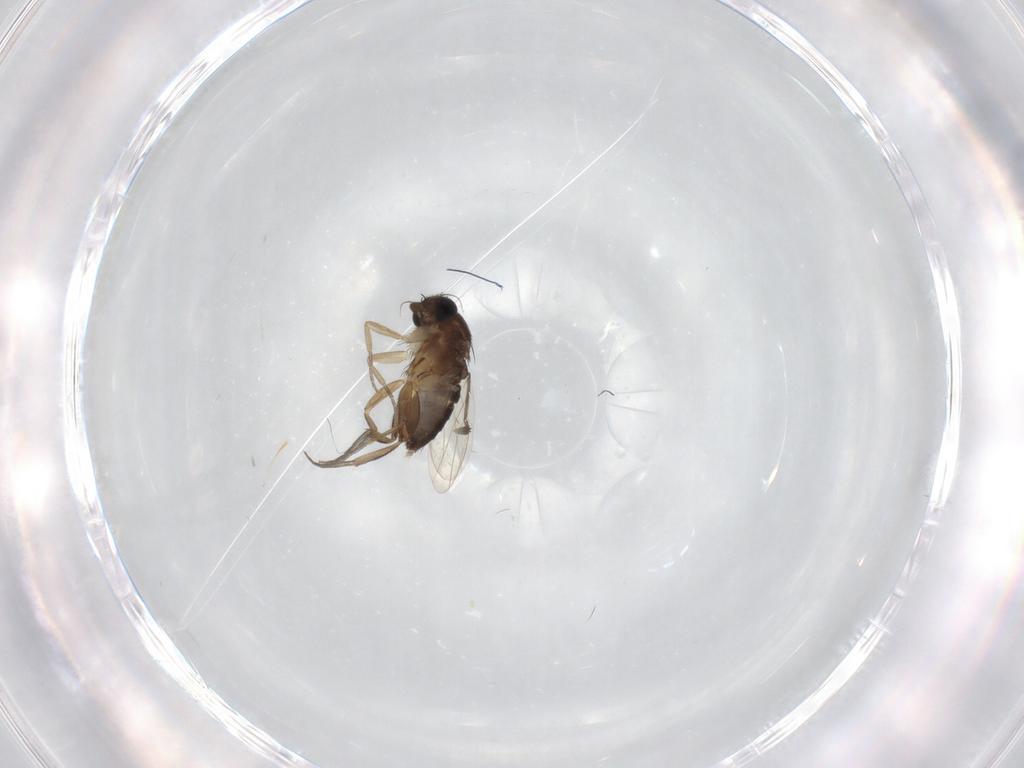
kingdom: Animalia
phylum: Arthropoda
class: Insecta
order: Diptera
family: Phoridae
